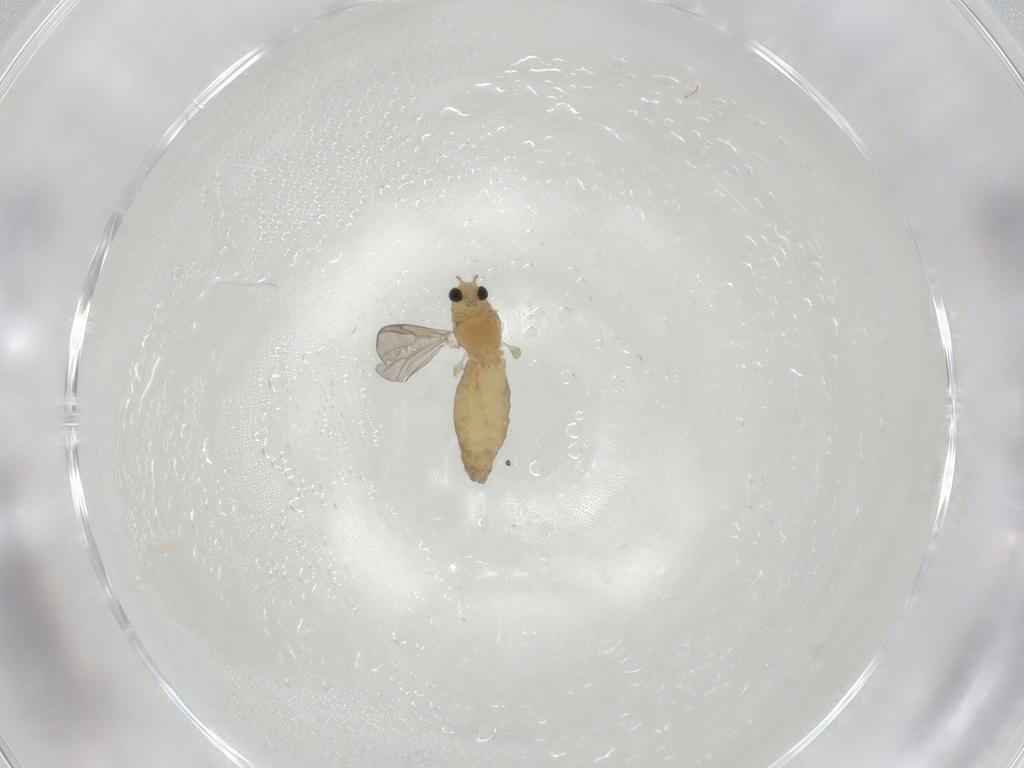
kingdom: Animalia
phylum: Arthropoda
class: Insecta
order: Diptera
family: Chironomidae
